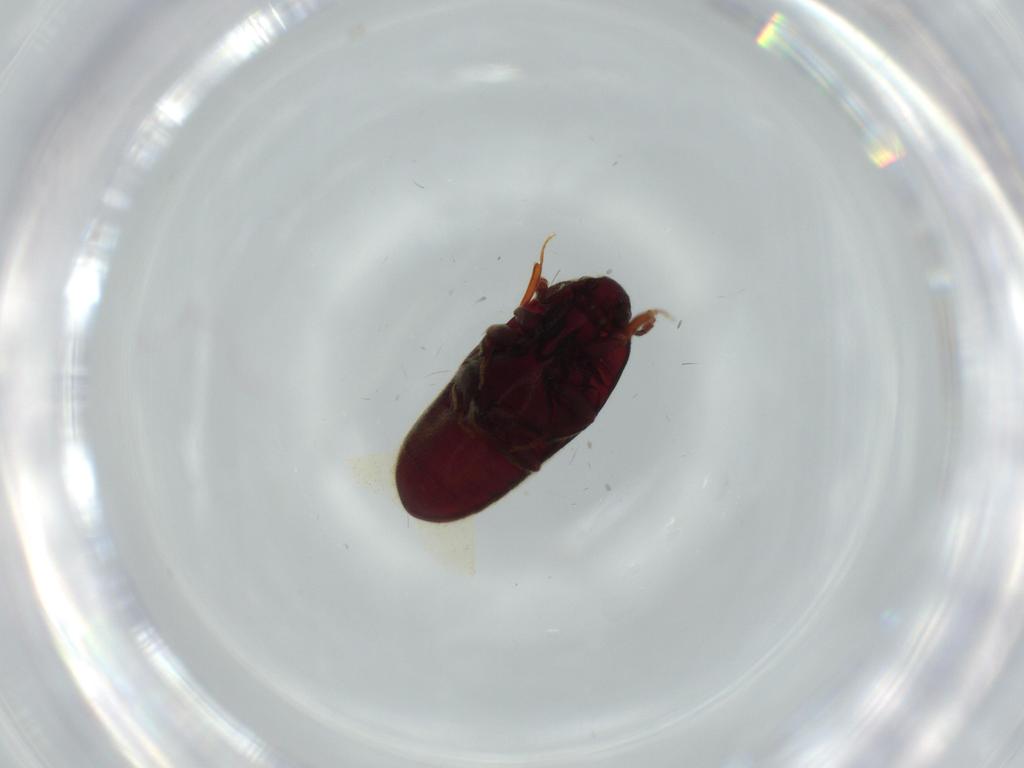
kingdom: Animalia
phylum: Arthropoda
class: Insecta
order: Coleoptera
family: Throscidae
